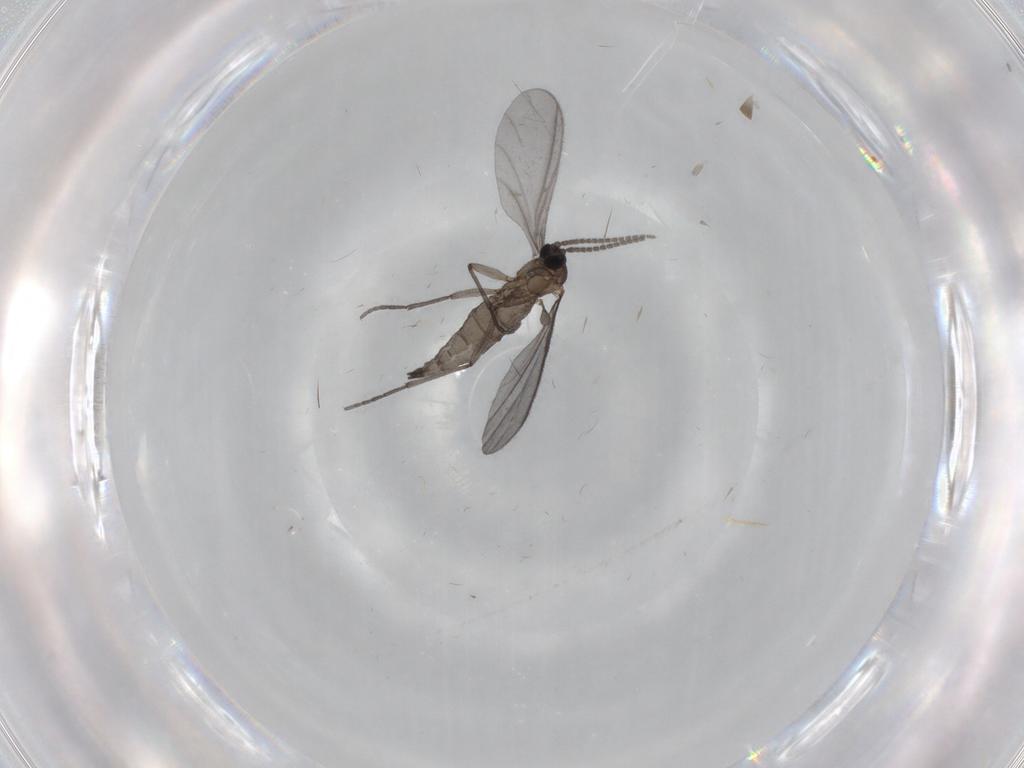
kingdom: Animalia
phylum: Arthropoda
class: Insecta
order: Diptera
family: Sciaridae
